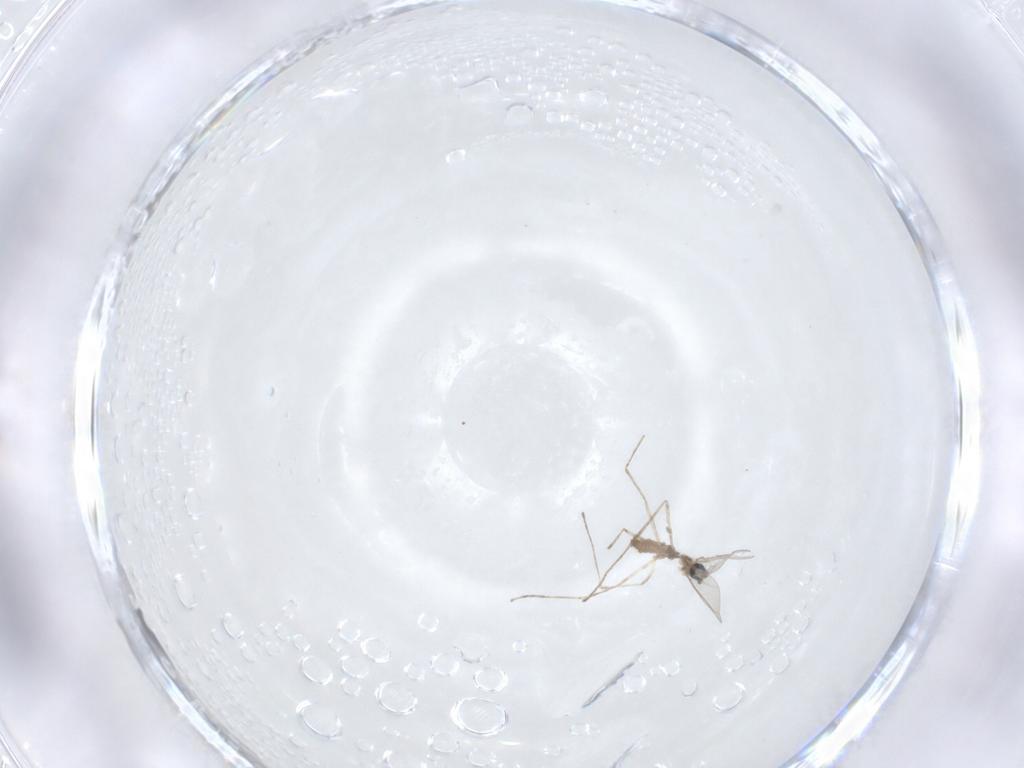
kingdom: Animalia
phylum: Arthropoda
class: Insecta
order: Diptera
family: Cecidomyiidae
